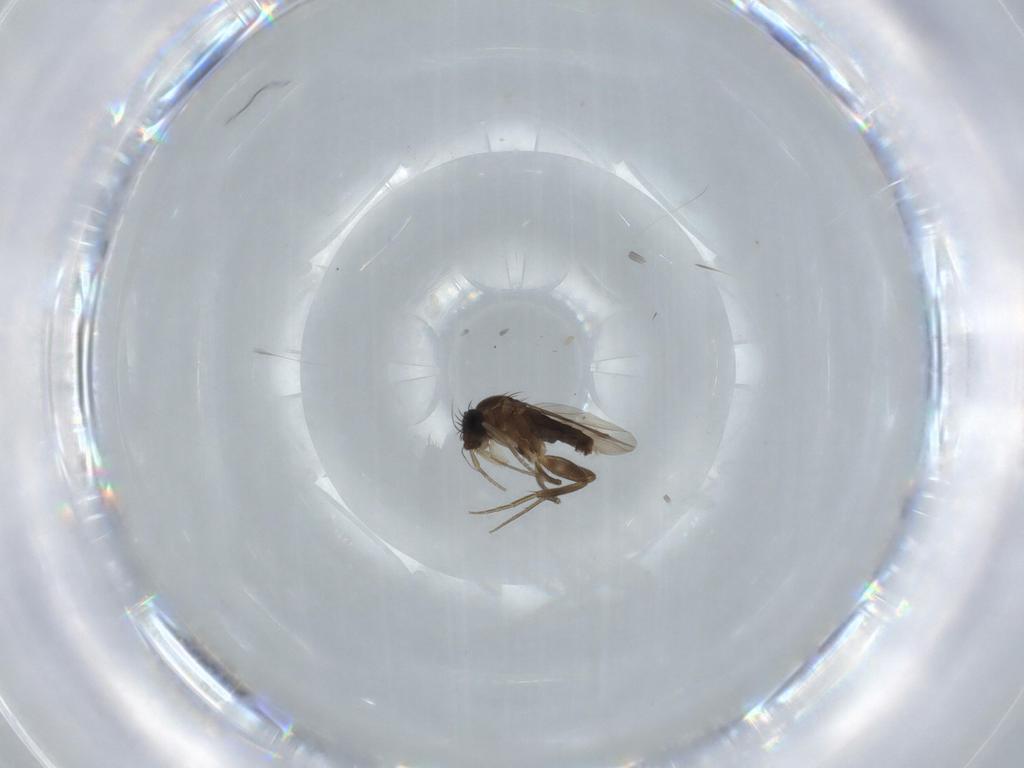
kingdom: Animalia
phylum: Arthropoda
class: Insecta
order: Diptera
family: Phoridae
